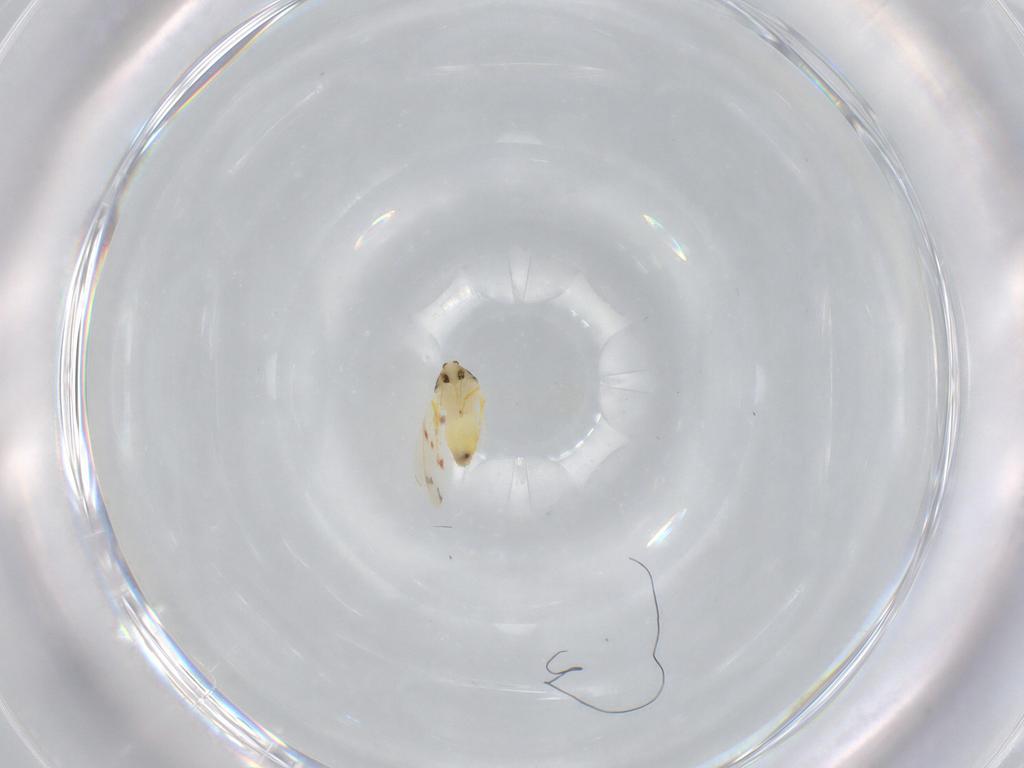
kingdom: Animalia
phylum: Arthropoda
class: Insecta
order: Hemiptera
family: Aleyrodidae
